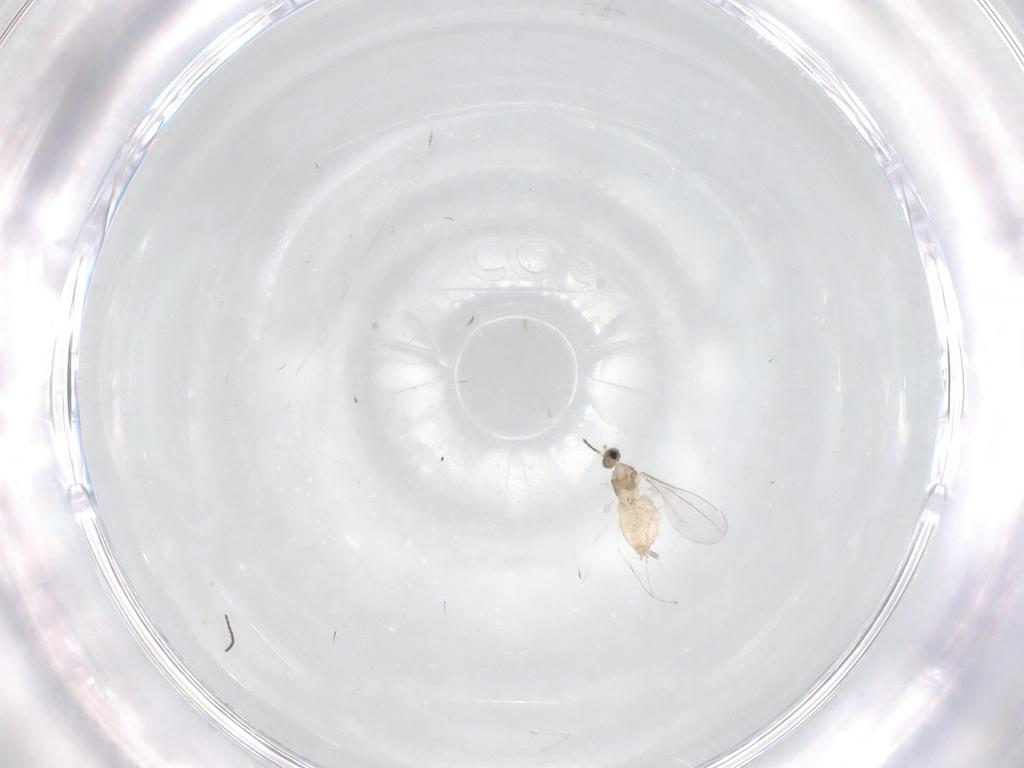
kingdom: Animalia
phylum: Arthropoda
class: Insecta
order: Diptera
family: Cecidomyiidae
